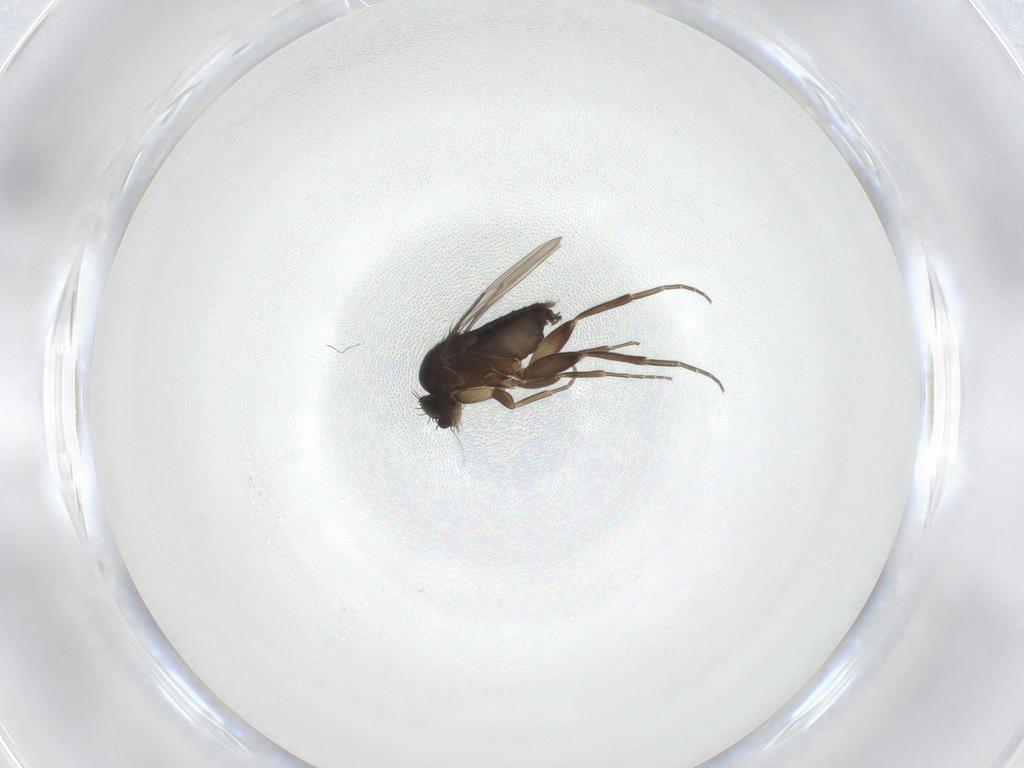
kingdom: Animalia
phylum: Arthropoda
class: Insecta
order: Diptera
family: Phoridae
